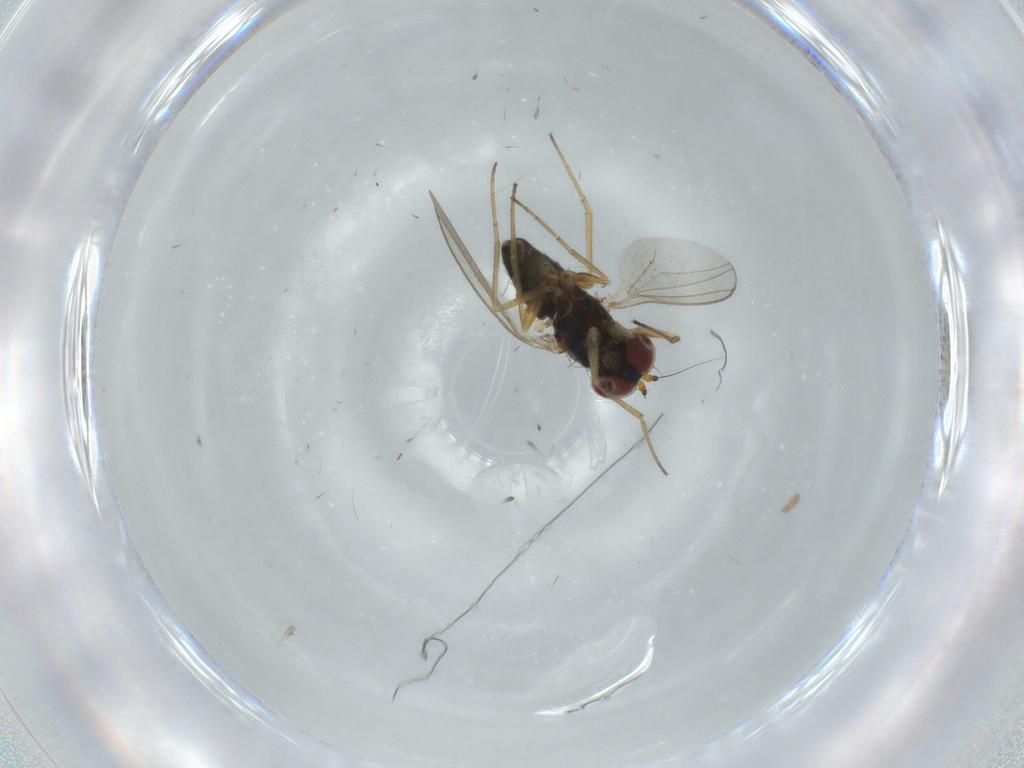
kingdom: Animalia
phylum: Arthropoda
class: Insecta
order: Diptera
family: Dolichopodidae
